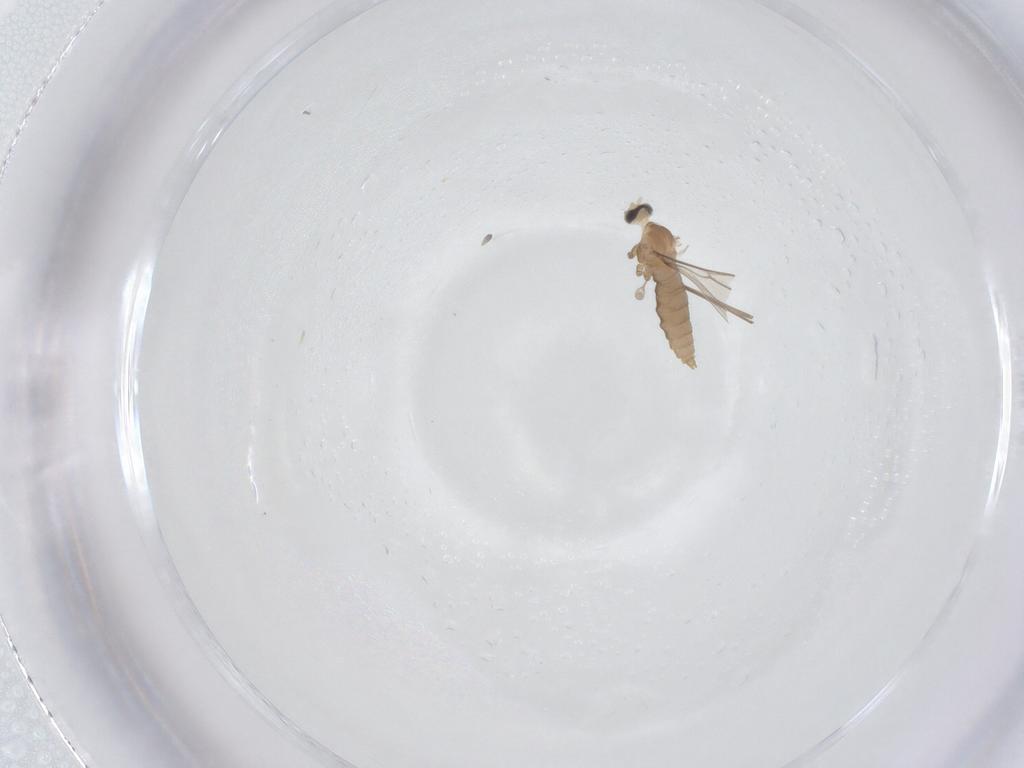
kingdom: Animalia
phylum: Arthropoda
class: Insecta
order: Diptera
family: Cecidomyiidae
